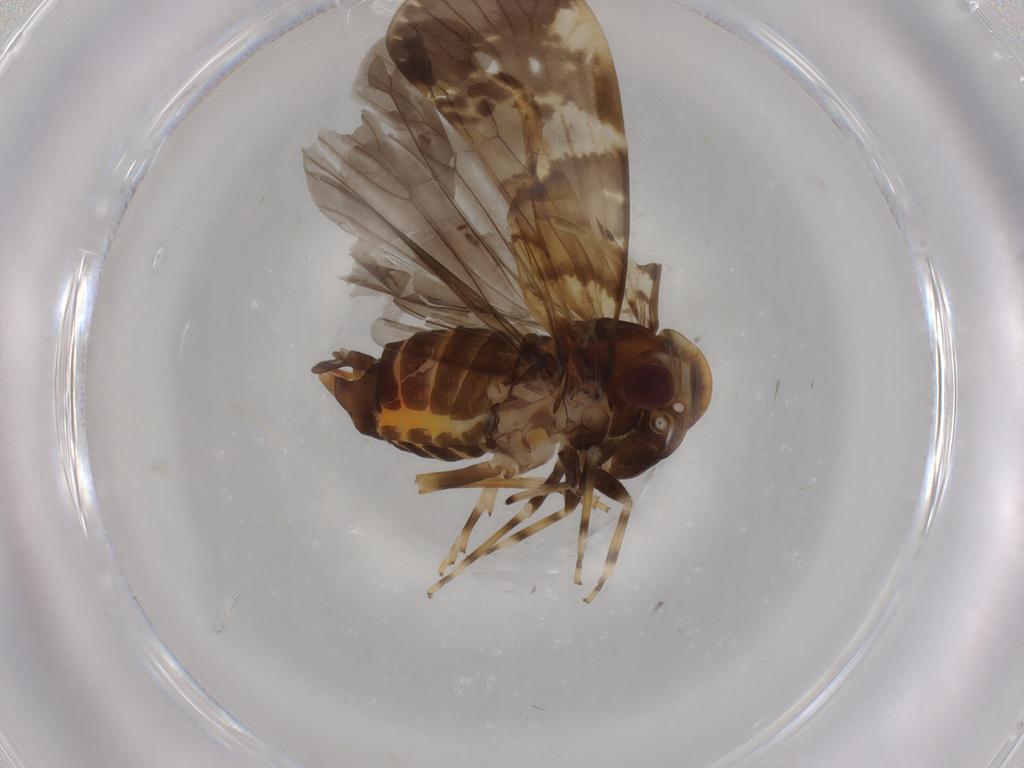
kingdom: Animalia
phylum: Arthropoda
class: Insecta
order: Hemiptera
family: Cixiidae
